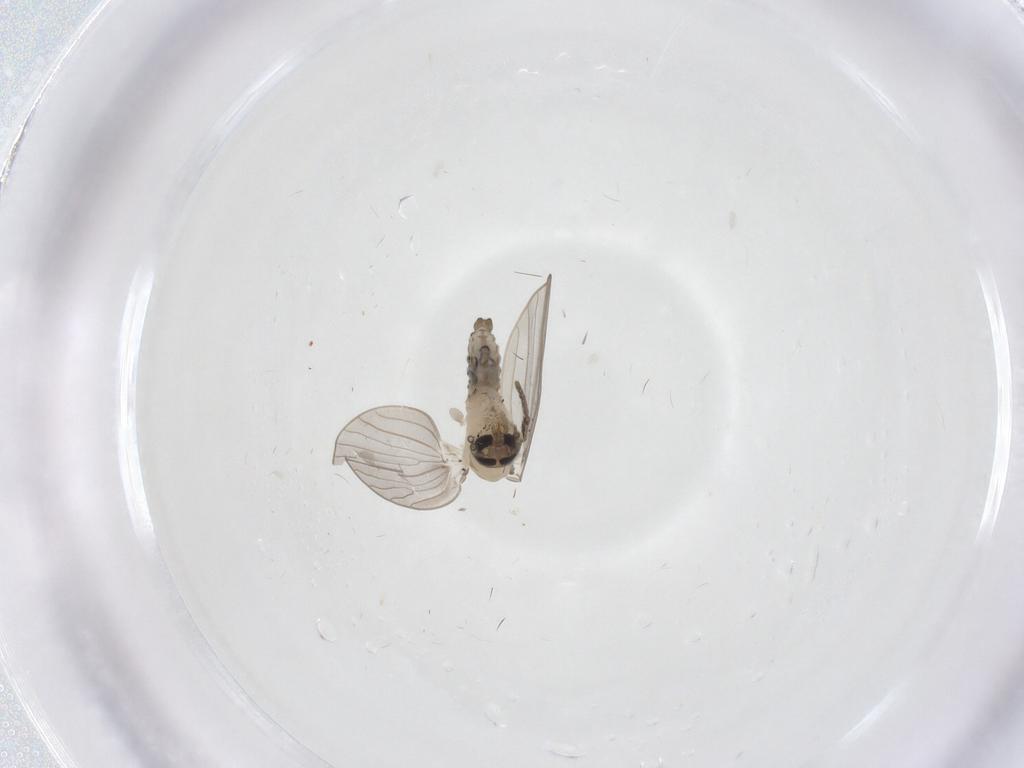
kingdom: Animalia
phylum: Arthropoda
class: Insecta
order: Diptera
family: Psychodidae
